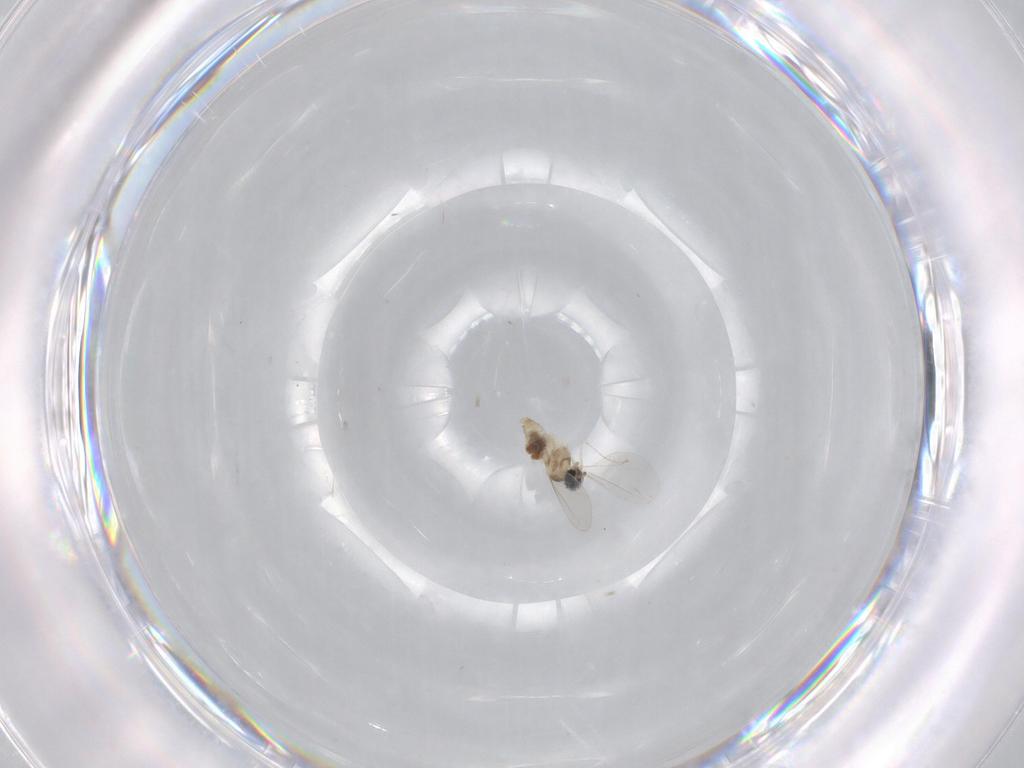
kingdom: Animalia
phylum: Arthropoda
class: Insecta
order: Diptera
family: Cecidomyiidae
